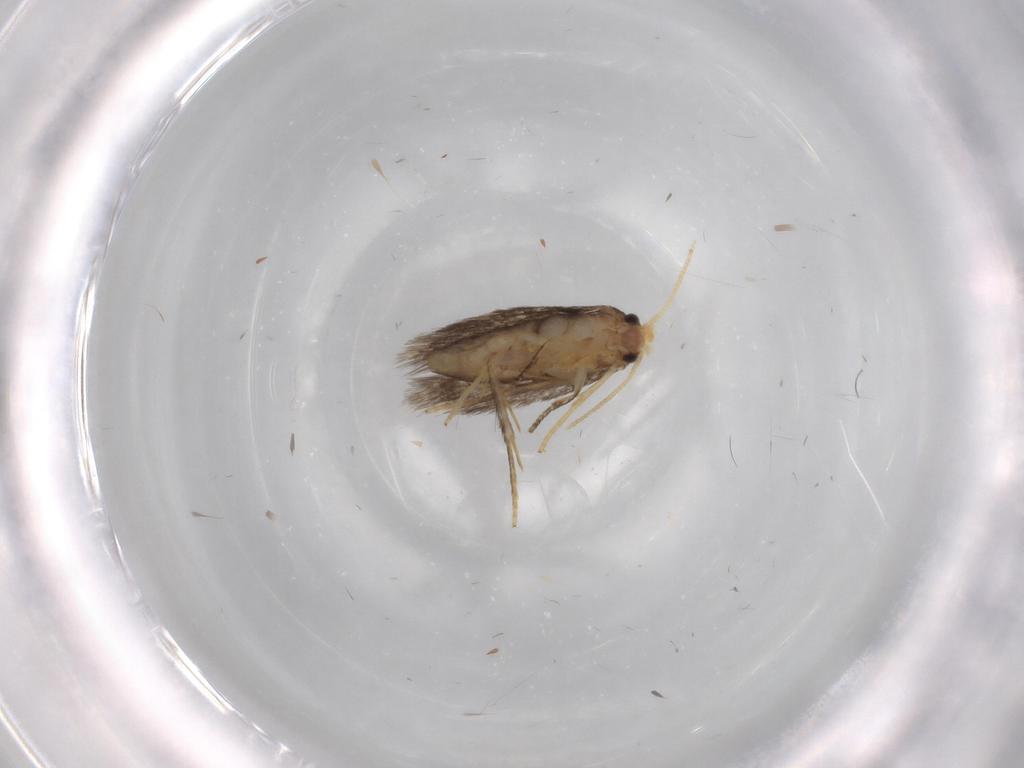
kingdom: Animalia
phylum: Arthropoda
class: Insecta
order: Lepidoptera
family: Nepticulidae
